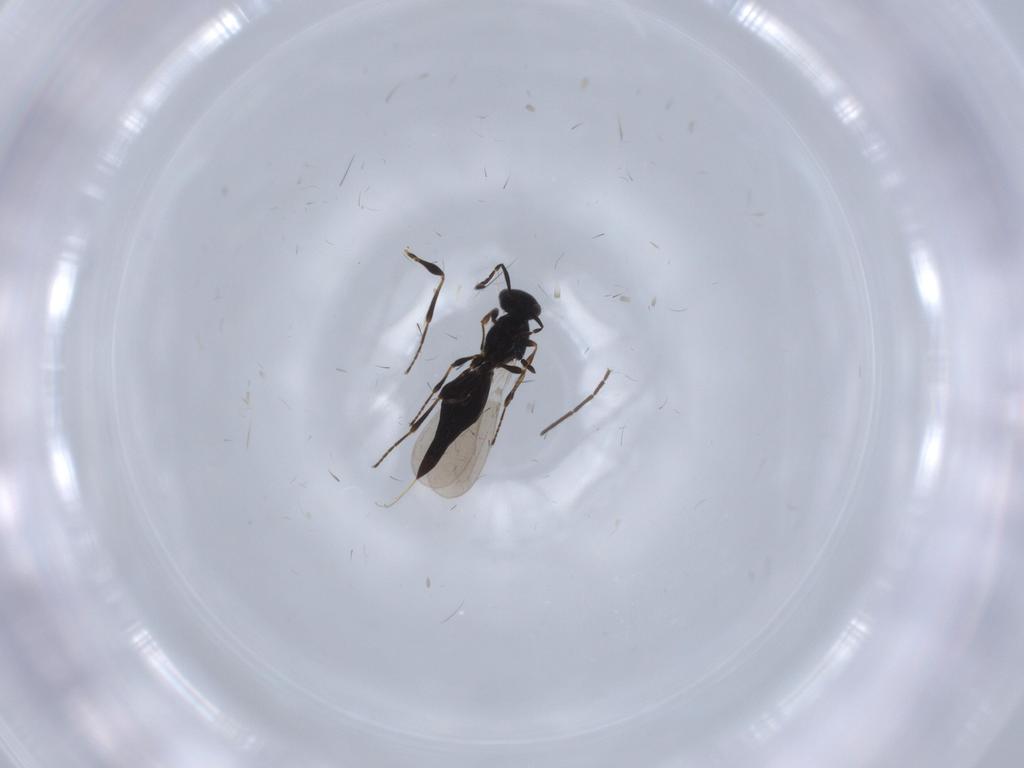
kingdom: Animalia
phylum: Arthropoda
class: Insecta
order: Hymenoptera
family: Platygastridae
